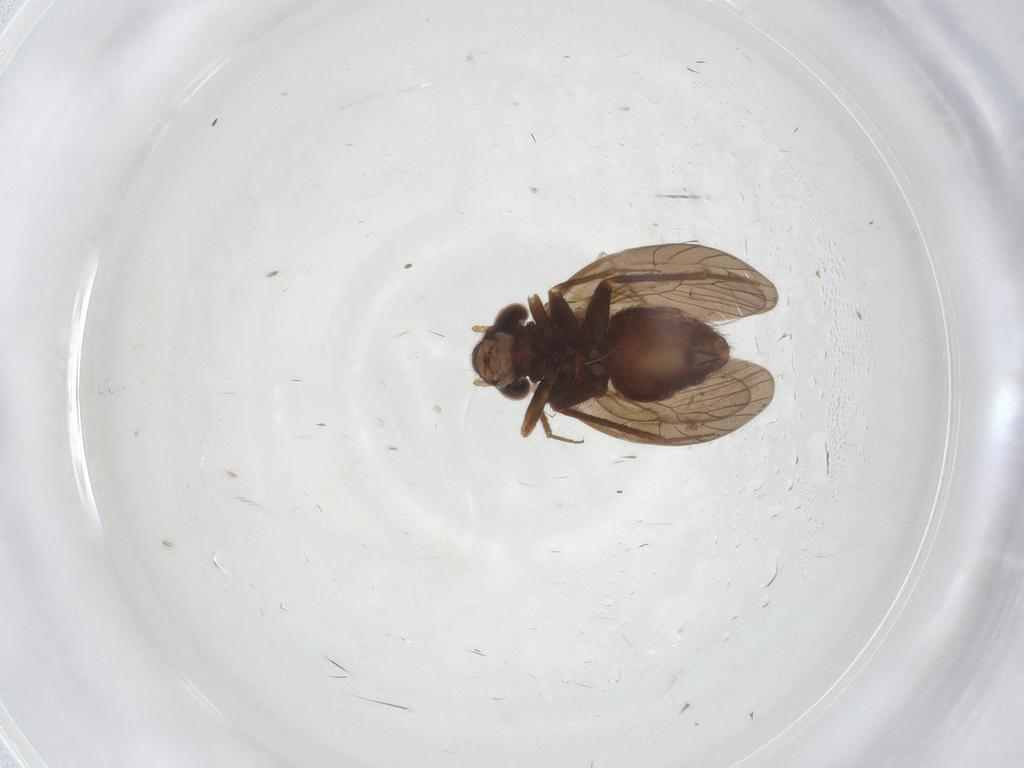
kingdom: Animalia
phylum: Arthropoda
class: Insecta
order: Psocodea
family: Lepidopsocidae
